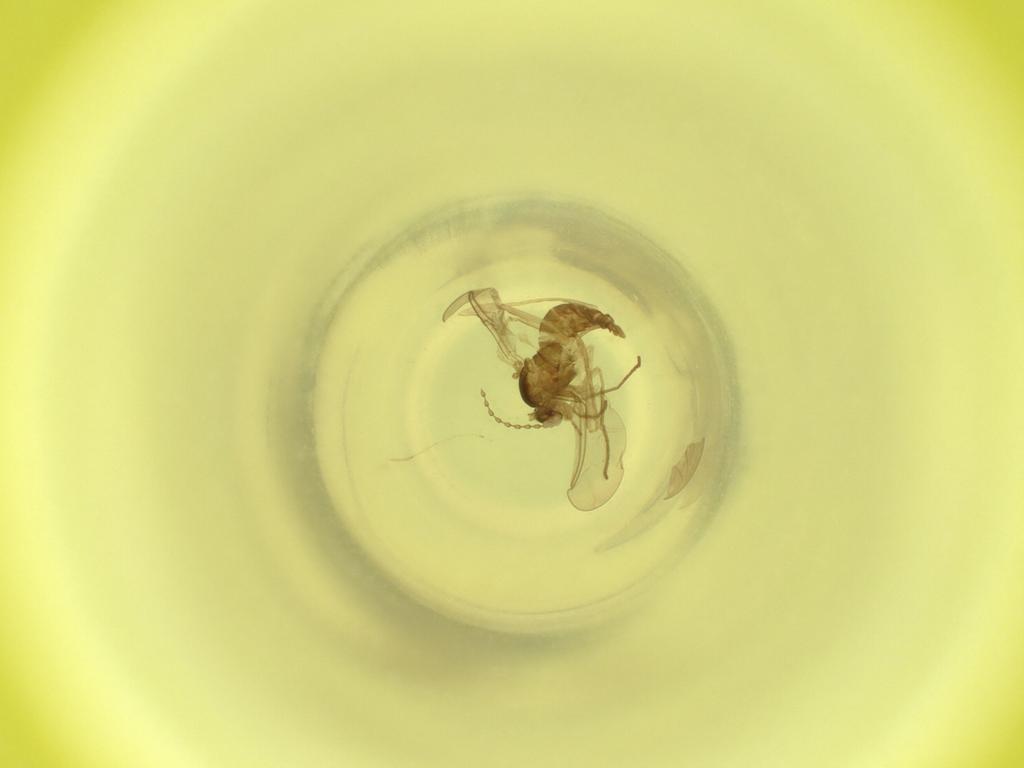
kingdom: Animalia
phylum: Arthropoda
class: Insecta
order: Diptera
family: Cecidomyiidae
